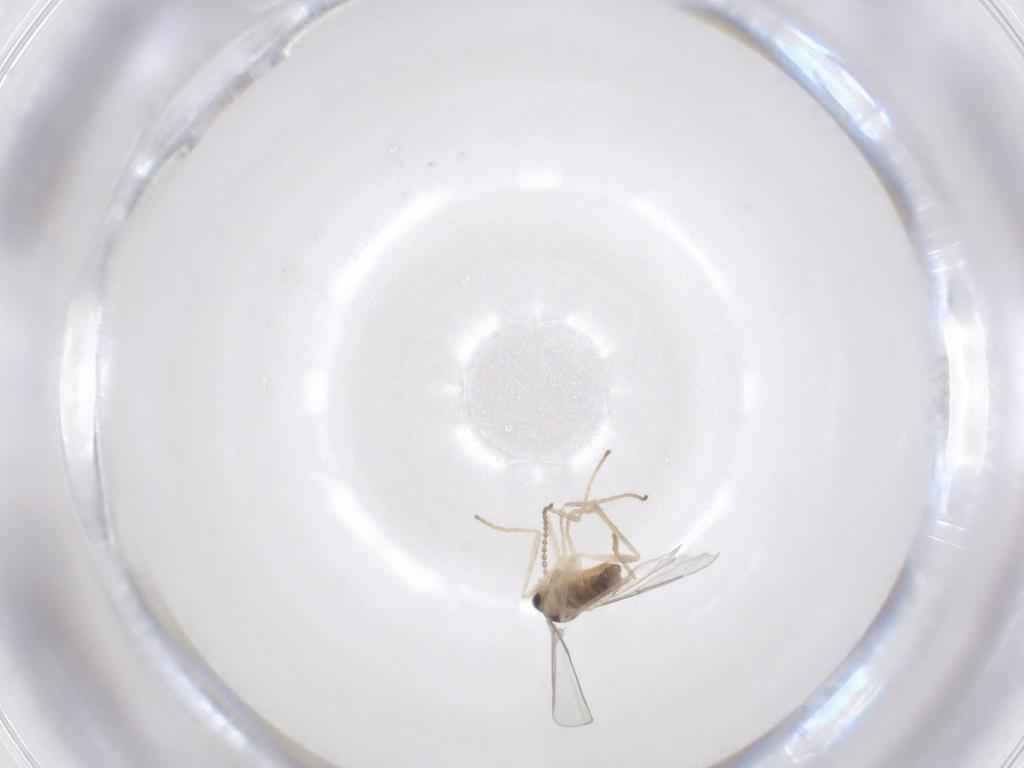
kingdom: Animalia
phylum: Arthropoda
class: Insecta
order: Diptera
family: Cecidomyiidae
